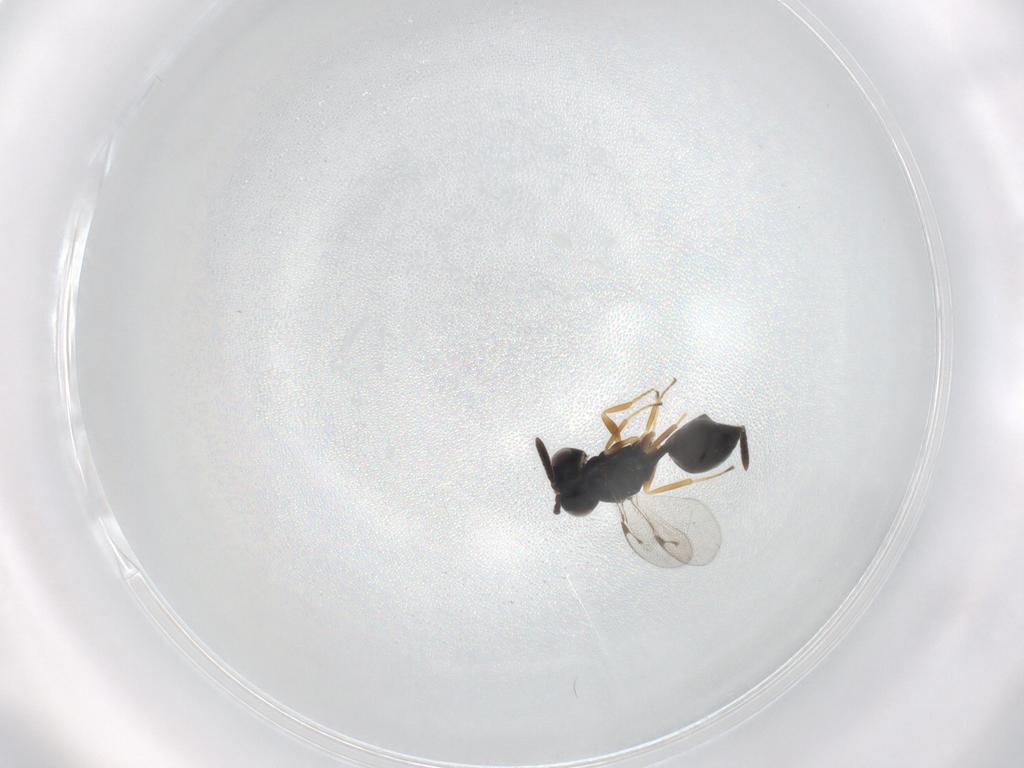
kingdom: Animalia
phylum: Arthropoda
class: Insecta
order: Hymenoptera
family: Pteromalidae
